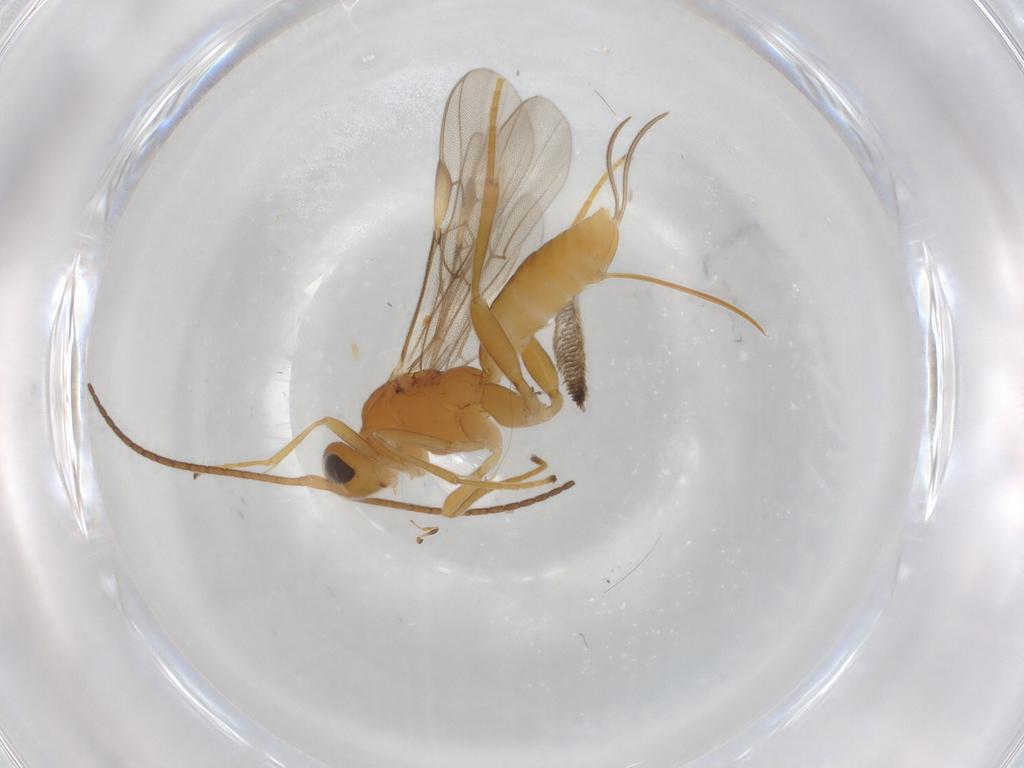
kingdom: Animalia
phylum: Arthropoda
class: Insecta
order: Hymenoptera
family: Braconidae
